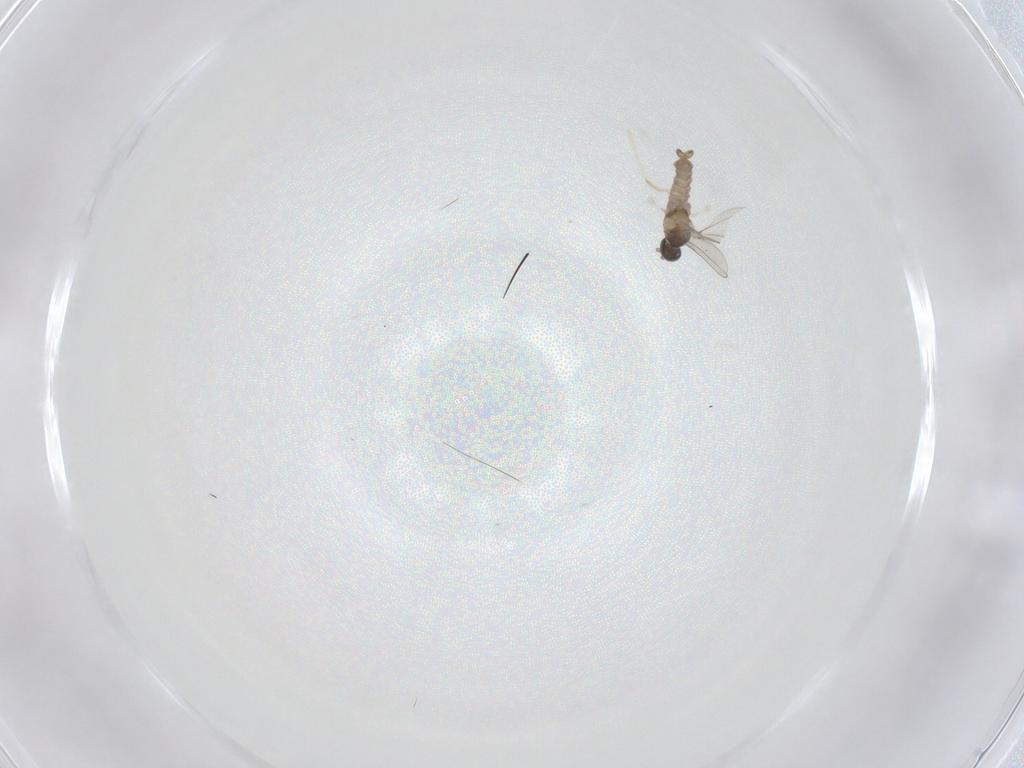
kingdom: Animalia
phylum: Arthropoda
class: Insecta
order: Diptera
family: Cecidomyiidae
